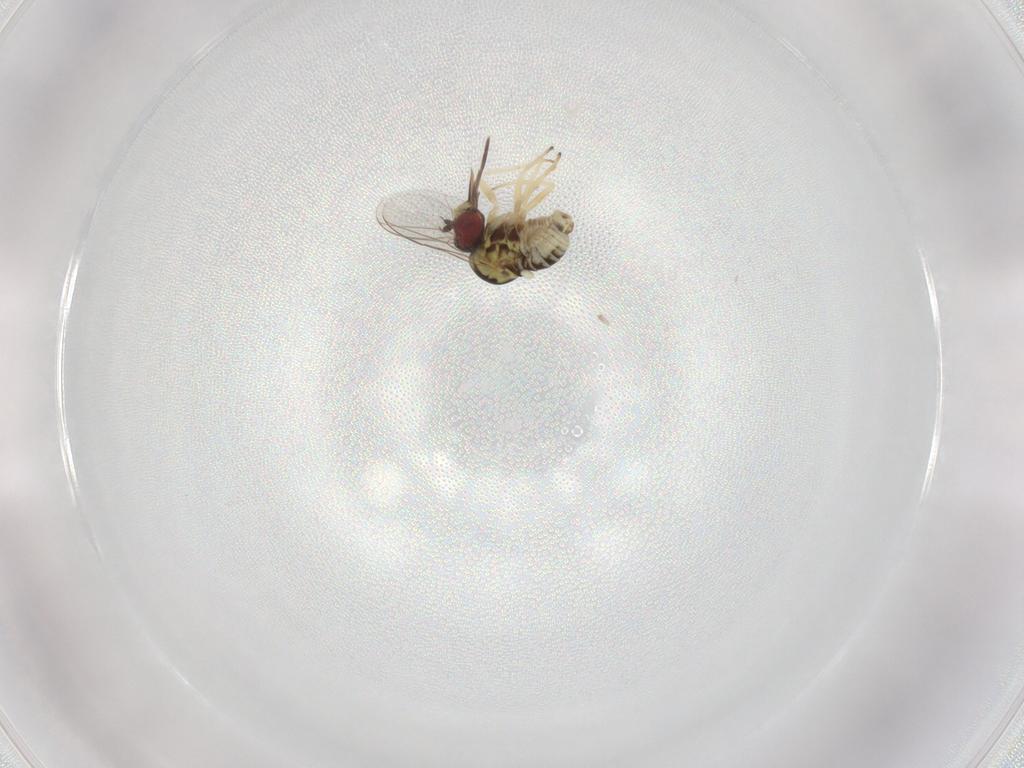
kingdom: Animalia
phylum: Arthropoda
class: Insecta
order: Diptera
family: Bombyliidae
